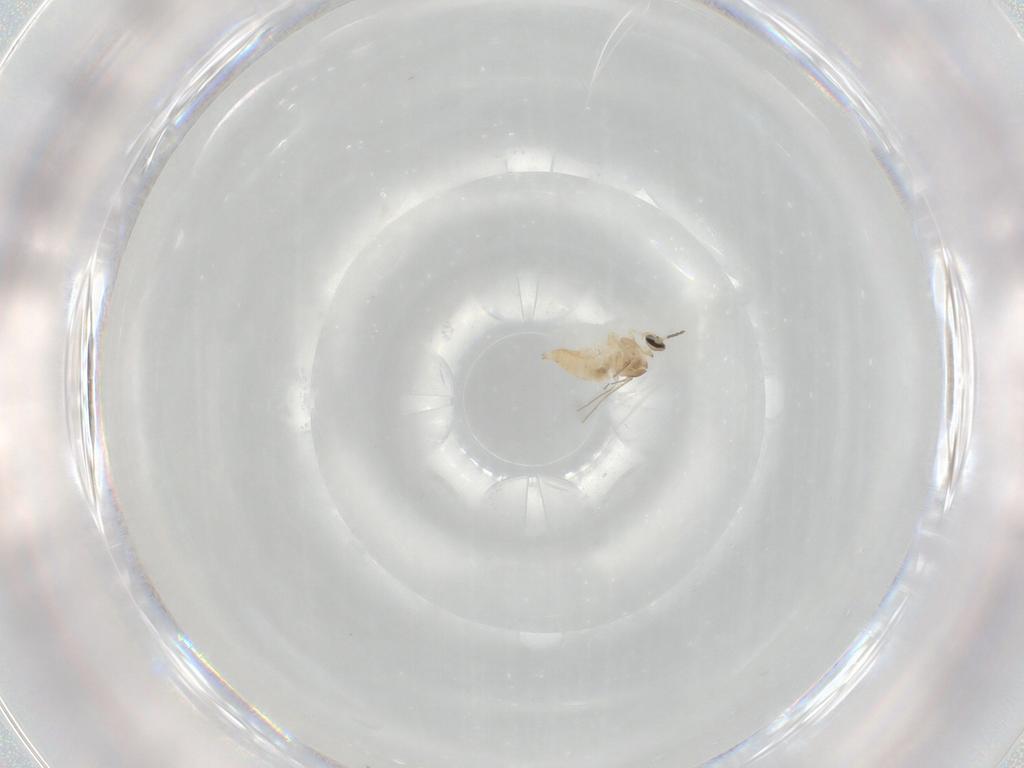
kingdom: Animalia
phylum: Arthropoda
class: Insecta
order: Diptera
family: Cecidomyiidae
